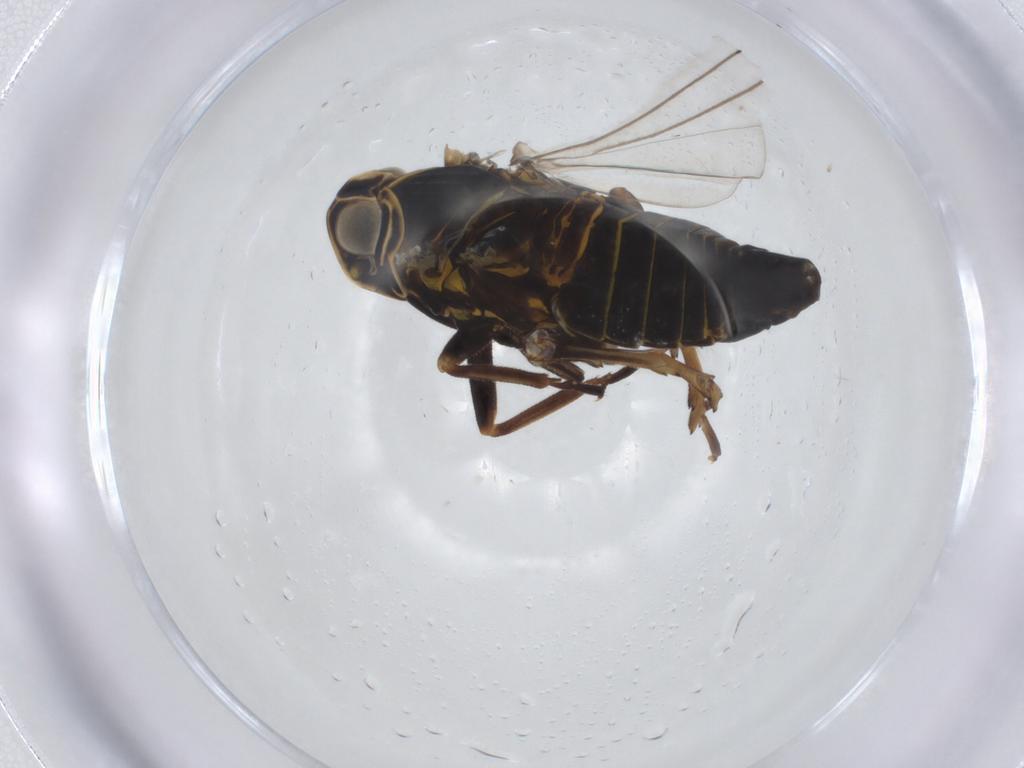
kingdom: Animalia
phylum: Arthropoda
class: Insecta
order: Hemiptera
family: Cixiidae
